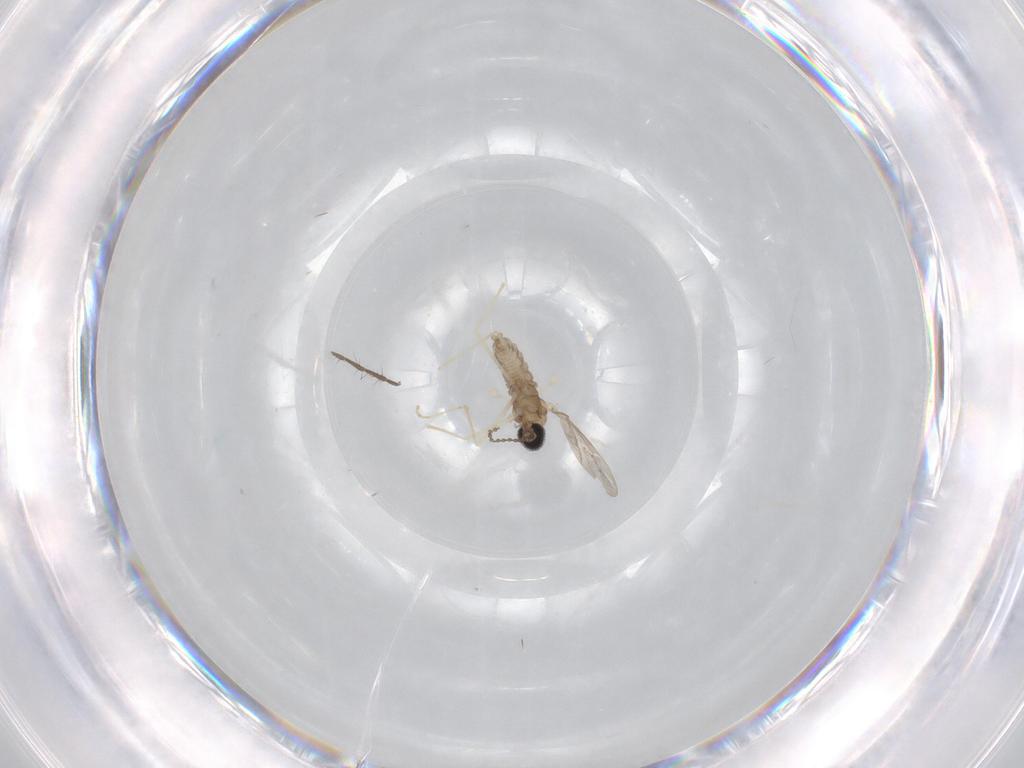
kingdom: Animalia
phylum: Arthropoda
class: Insecta
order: Diptera
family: Cecidomyiidae
